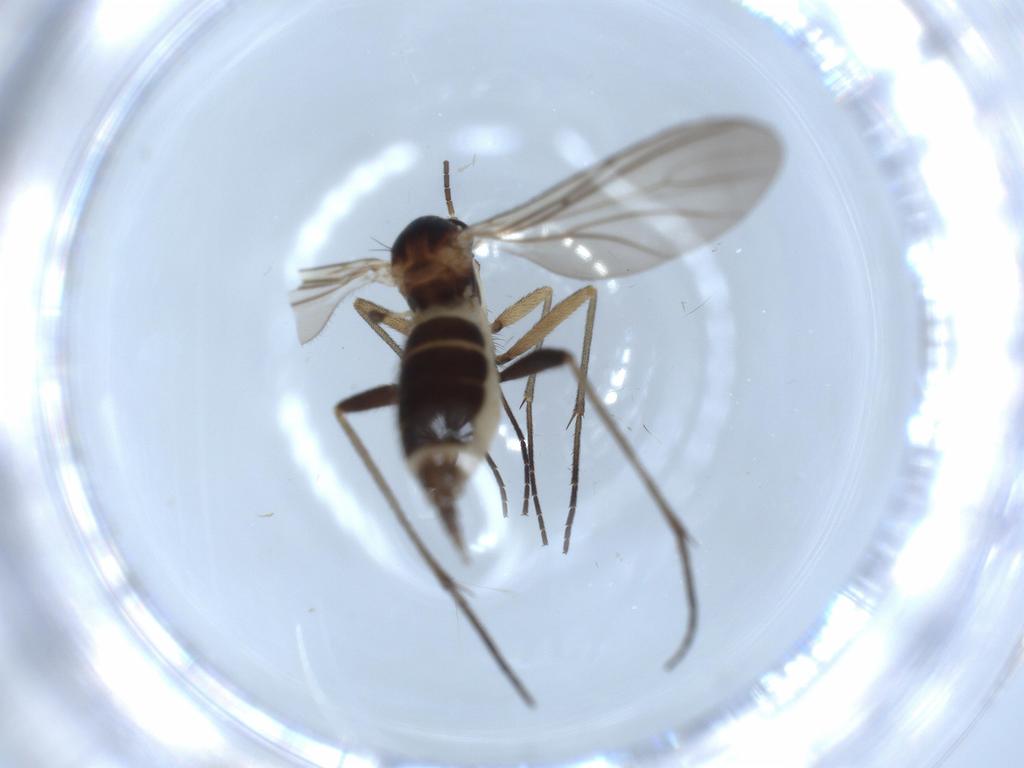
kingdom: Animalia
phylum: Arthropoda
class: Insecta
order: Diptera
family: Sciaridae
